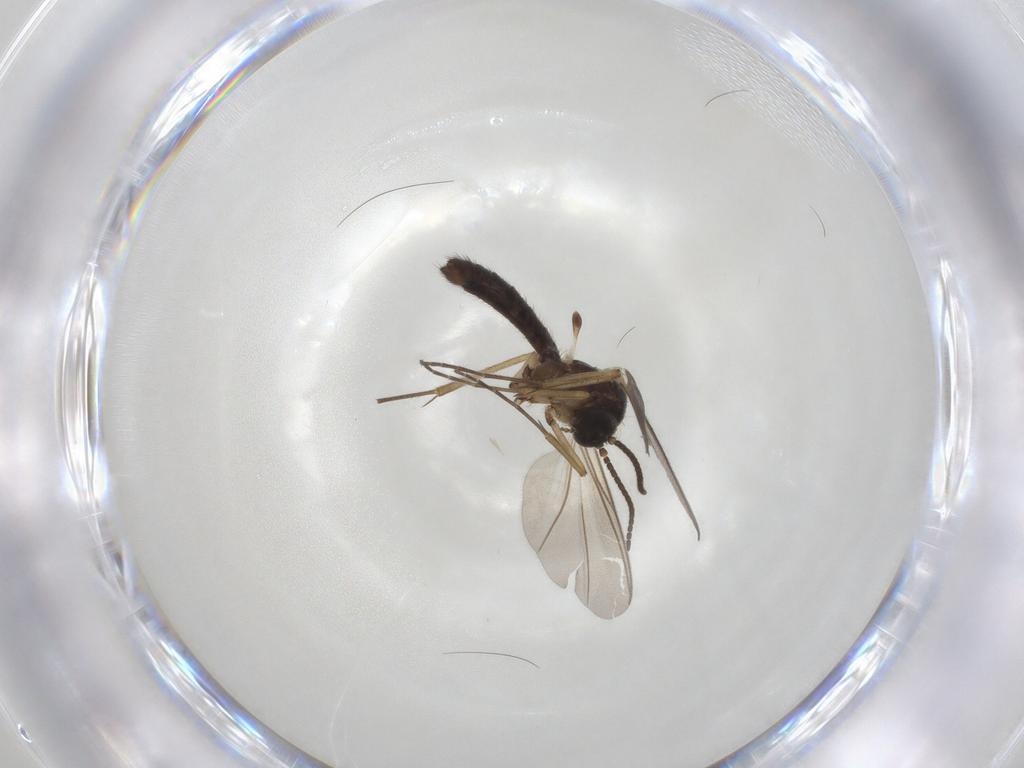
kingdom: Animalia
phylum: Arthropoda
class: Insecta
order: Diptera
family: Mycetophilidae
